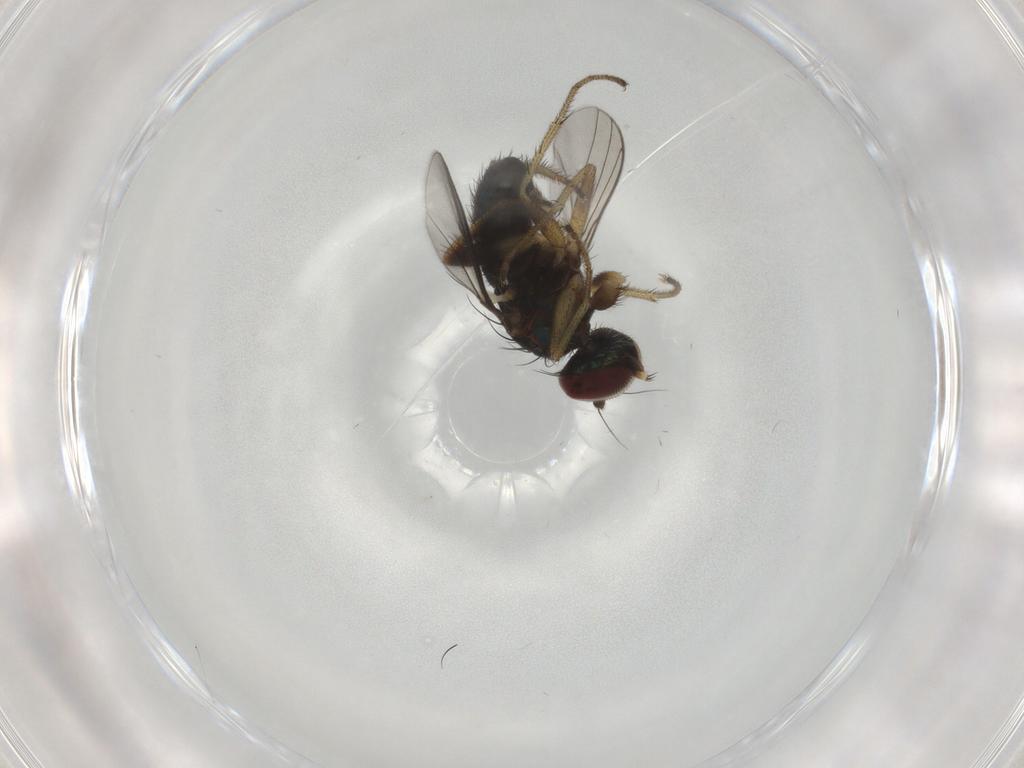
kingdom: Animalia
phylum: Arthropoda
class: Insecta
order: Diptera
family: Dolichopodidae
